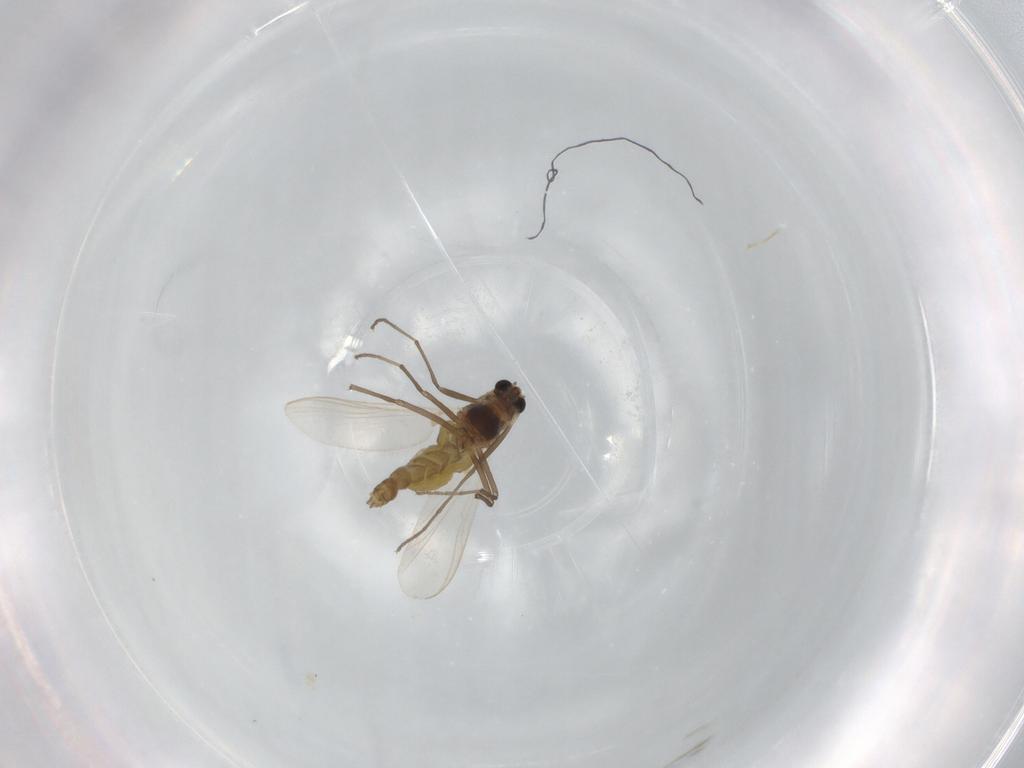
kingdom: Animalia
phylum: Arthropoda
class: Insecta
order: Diptera
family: Chironomidae
